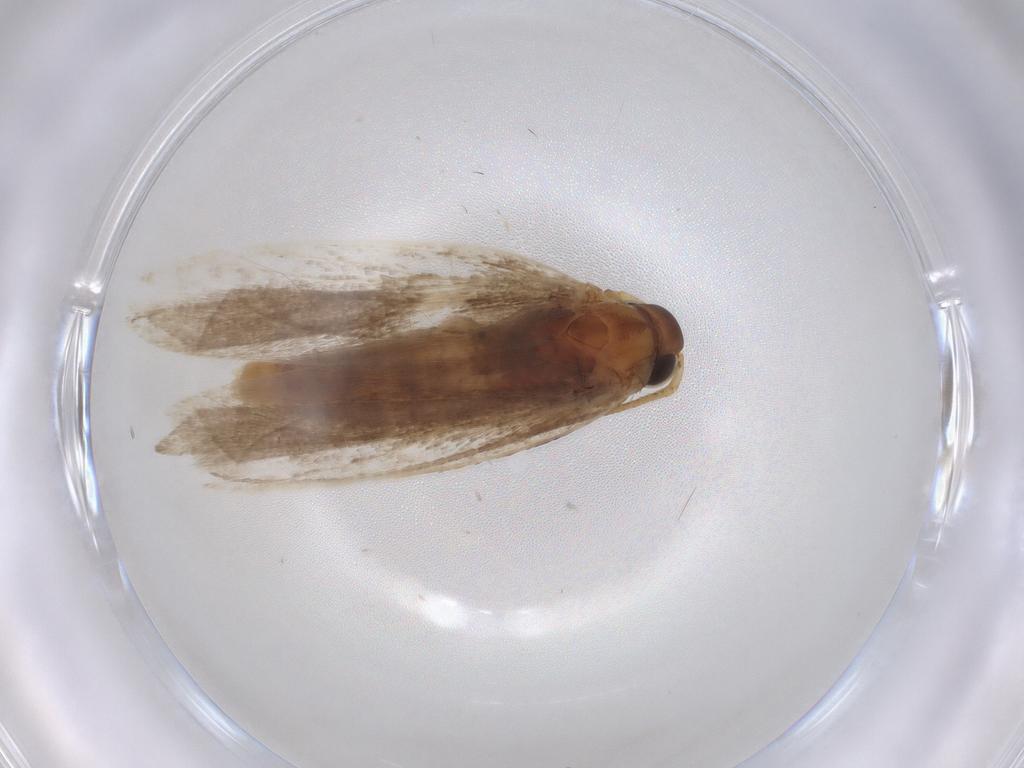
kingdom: Animalia
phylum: Arthropoda
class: Insecta
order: Lepidoptera
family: Gelechiidae
